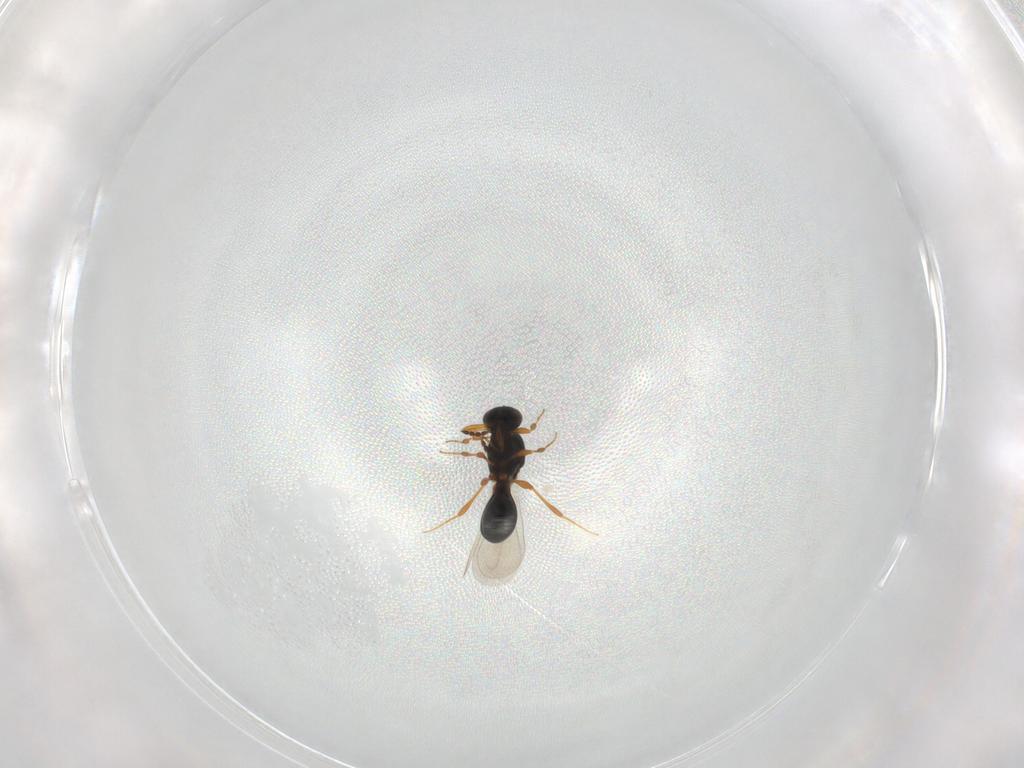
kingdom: Animalia
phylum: Arthropoda
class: Insecta
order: Hymenoptera
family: Platygastridae
